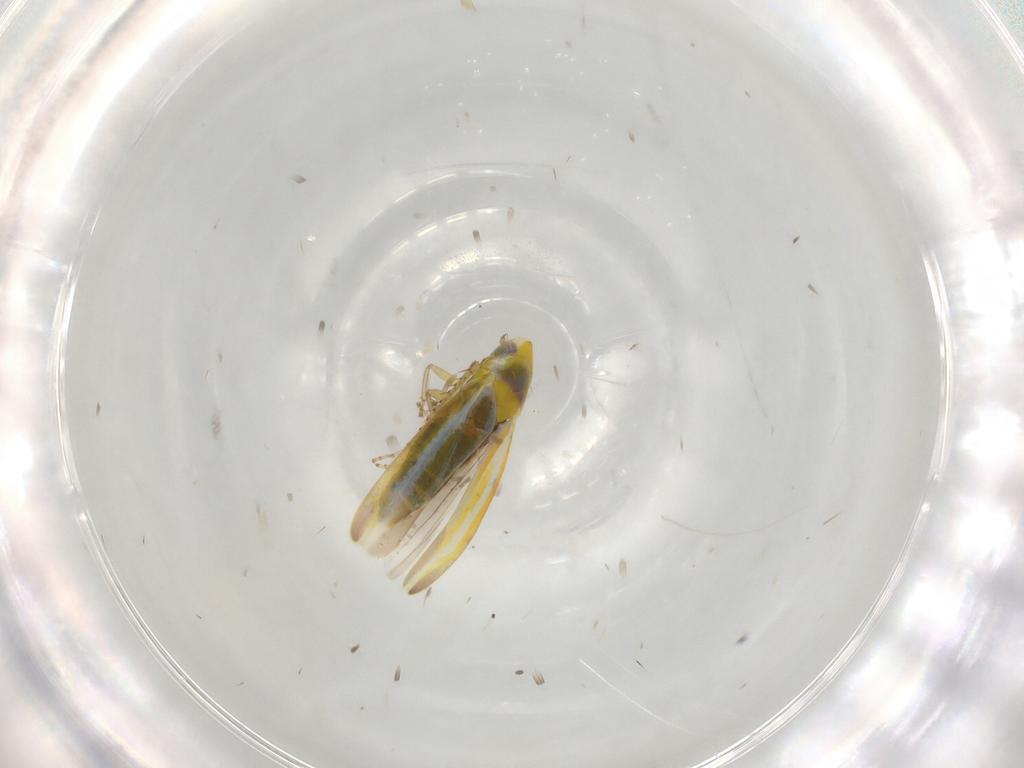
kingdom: Animalia
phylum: Arthropoda
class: Insecta
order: Hemiptera
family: Cicadellidae
